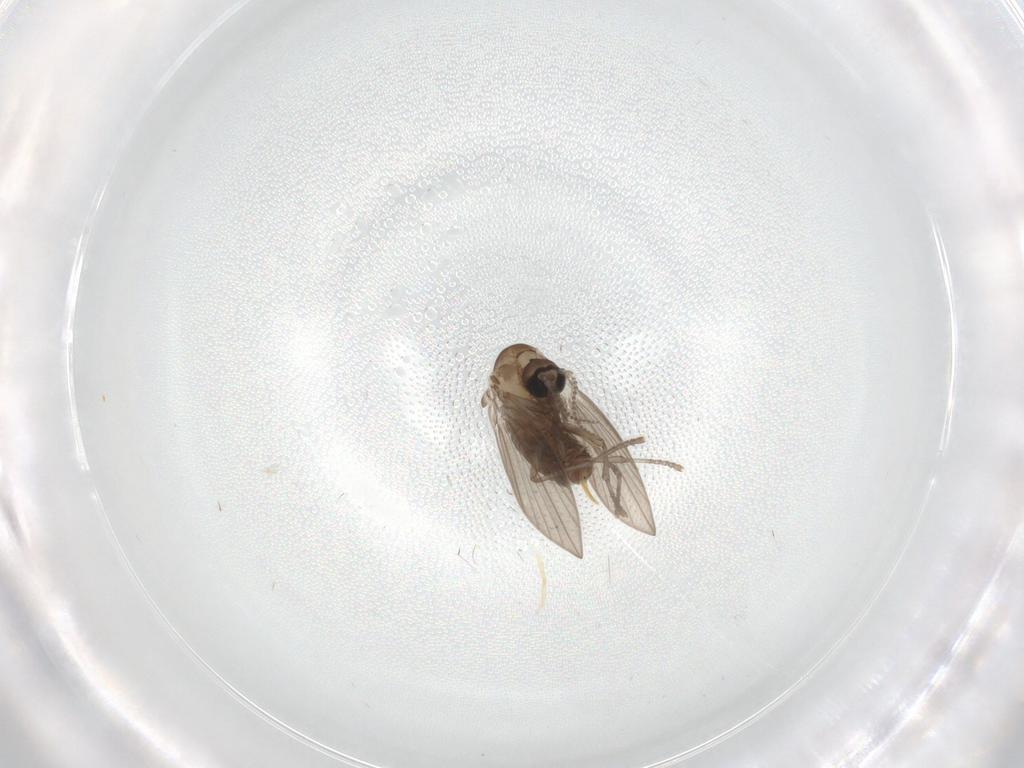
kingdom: Animalia
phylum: Arthropoda
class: Insecta
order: Diptera
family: Psychodidae
